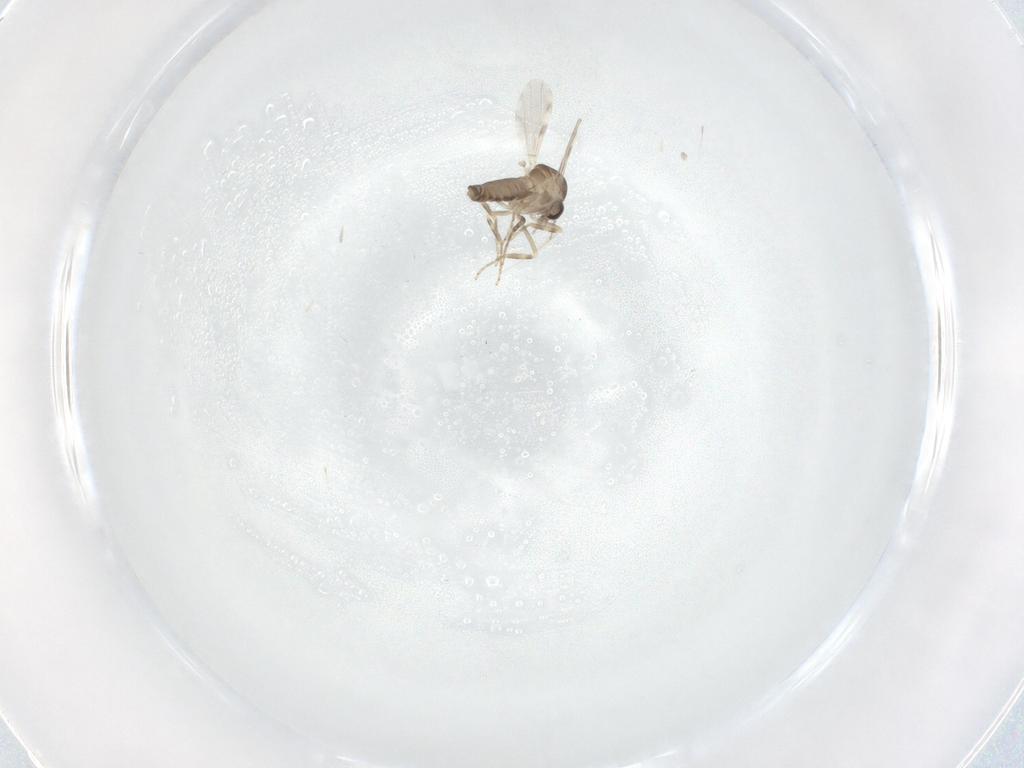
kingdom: Animalia
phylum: Arthropoda
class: Insecta
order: Diptera
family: Ceratopogonidae
